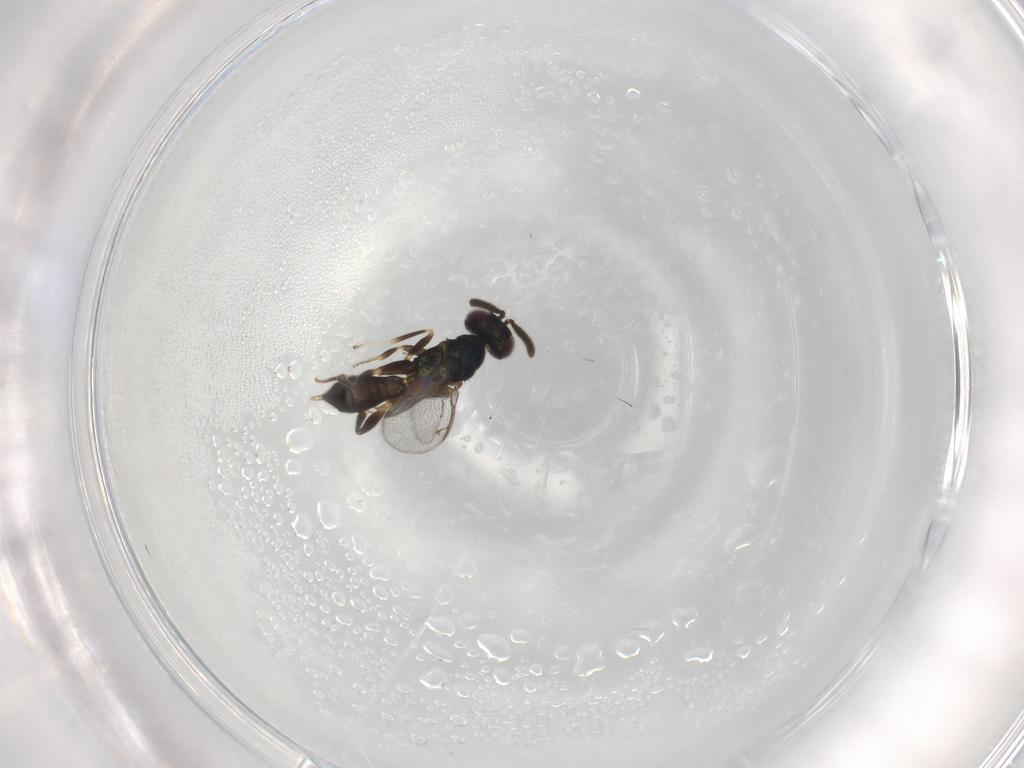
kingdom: Animalia
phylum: Arthropoda
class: Insecta
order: Hymenoptera
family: Cleonyminae
